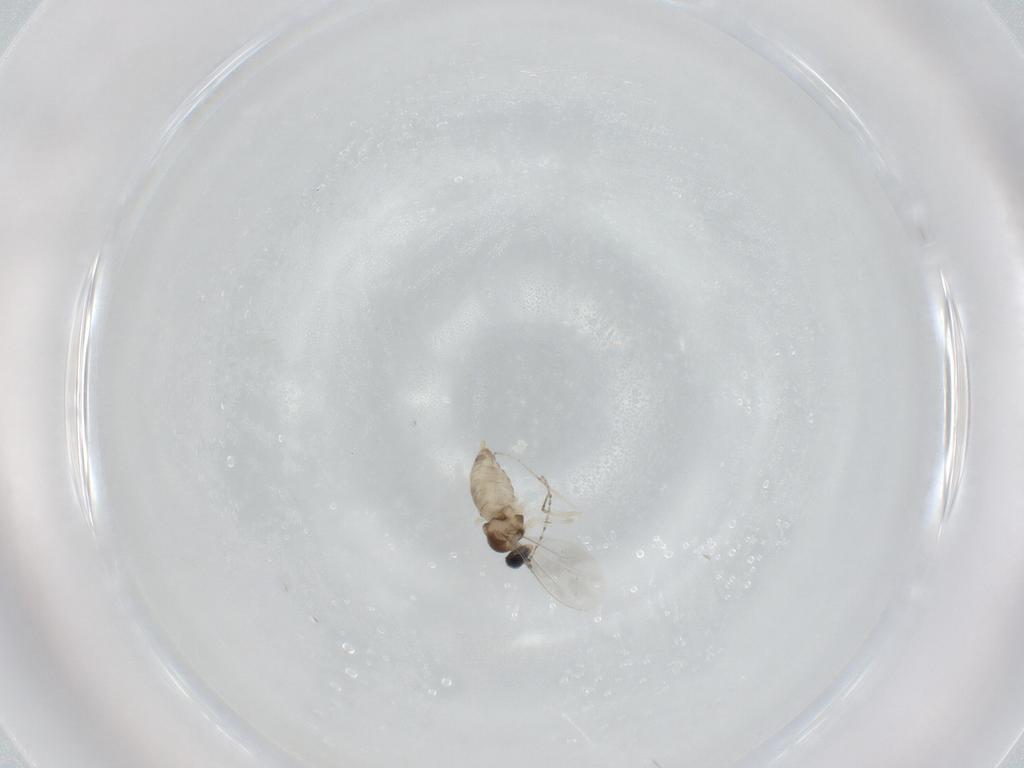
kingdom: Animalia
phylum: Arthropoda
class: Insecta
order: Diptera
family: Cecidomyiidae
